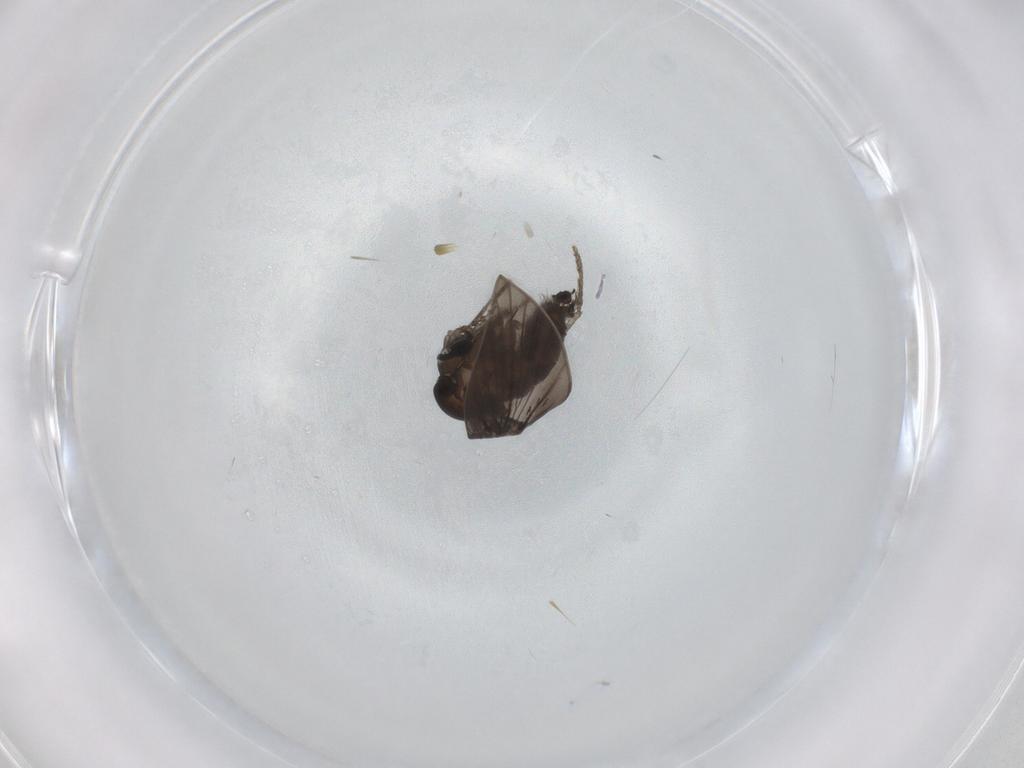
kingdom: Animalia
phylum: Arthropoda
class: Insecta
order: Diptera
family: Psychodidae
